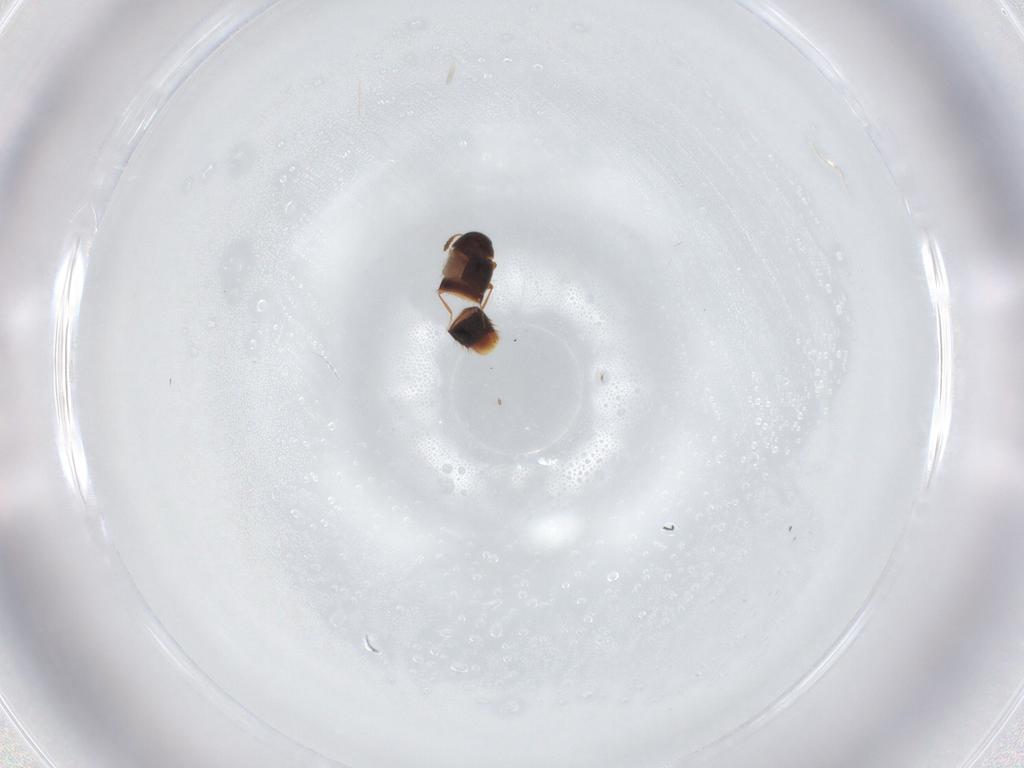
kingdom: Animalia
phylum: Arthropoda
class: Insecta
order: Coleoptera
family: Staphylinidae
